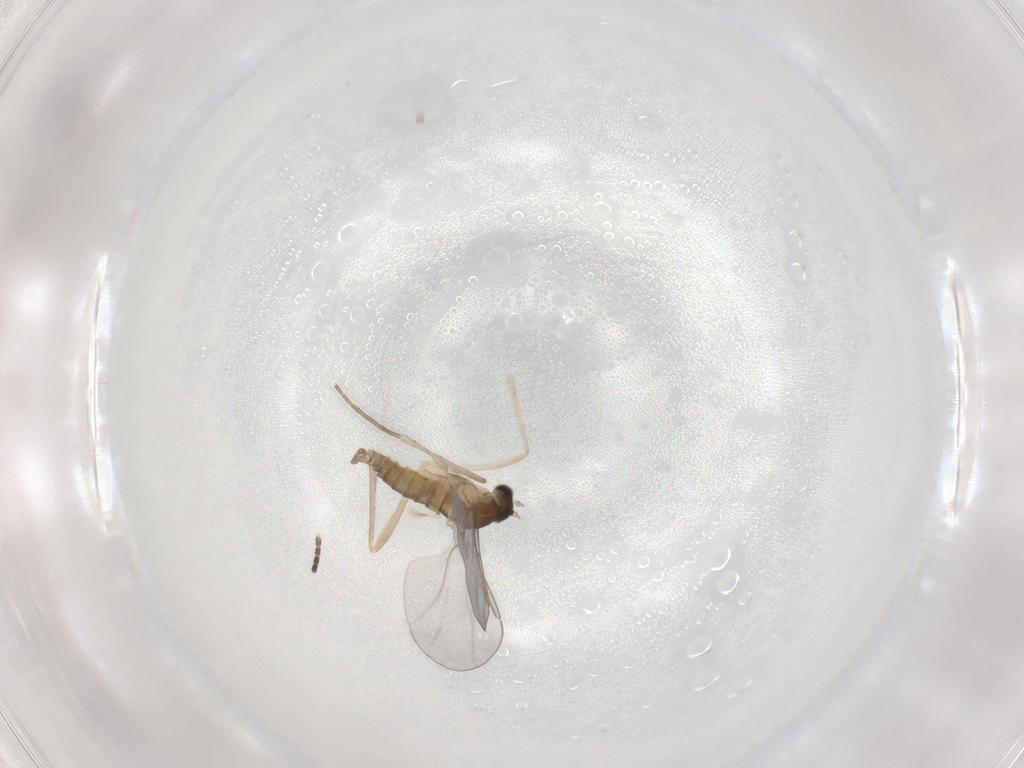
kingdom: Animalia
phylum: Arthropoda
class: Insecta
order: Diptera
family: Cecidomyiidae
